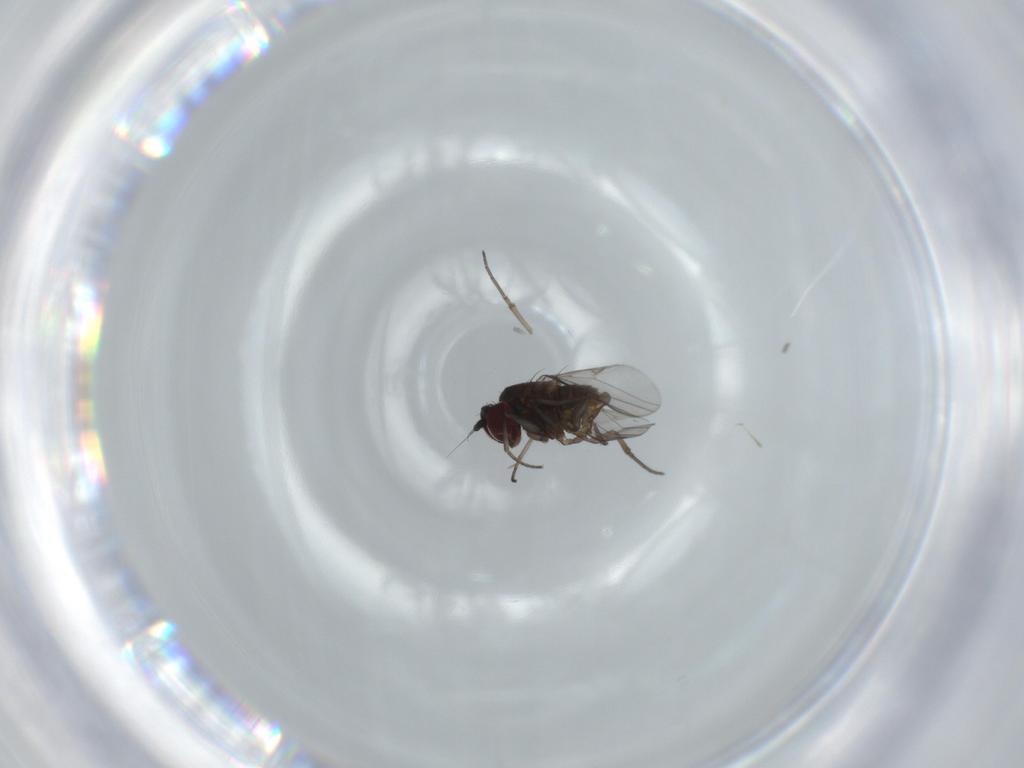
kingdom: Animalia
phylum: Arthropoda
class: Insecta
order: Diptera
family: Dolichopodidae
